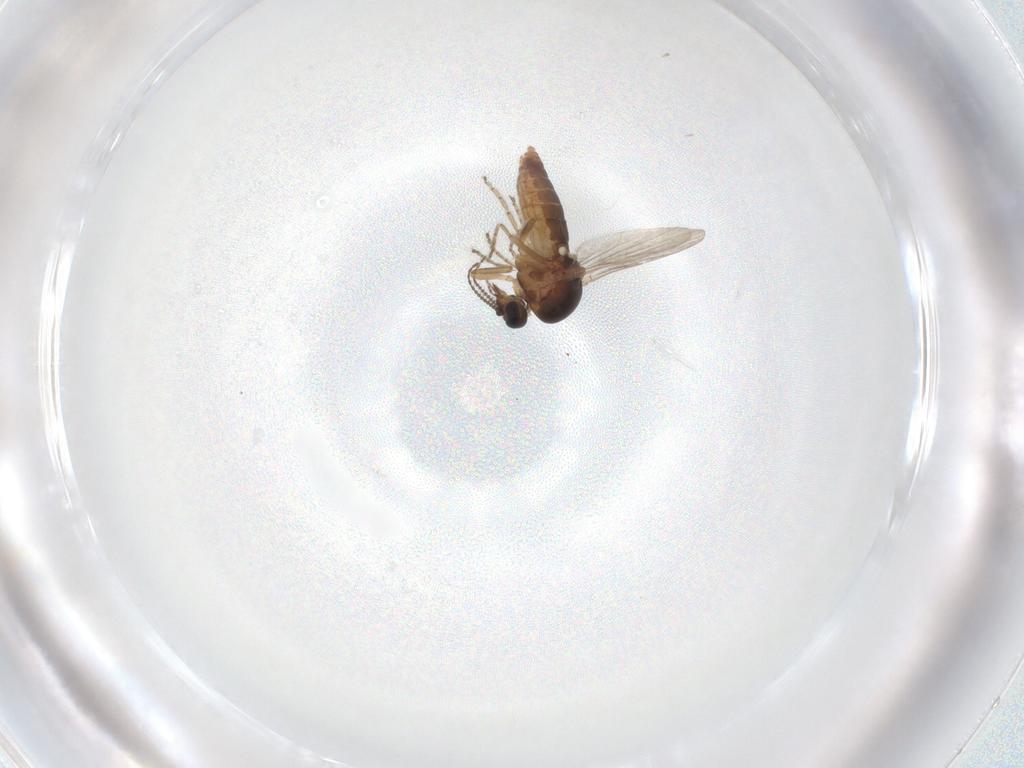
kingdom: Animalia
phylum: Arthropoda
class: Insecta
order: Diptera
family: Ceratopogonidae
